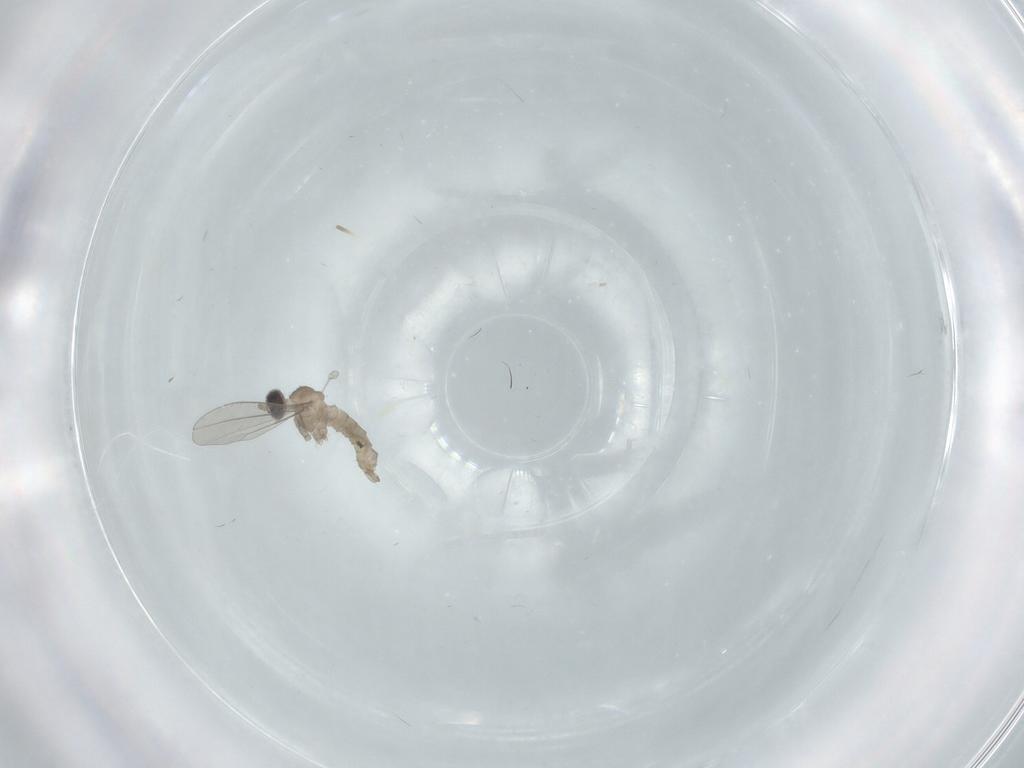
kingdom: Animalia
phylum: Arthropoda
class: Insecta
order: Diptera
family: Cecidomyiidae
